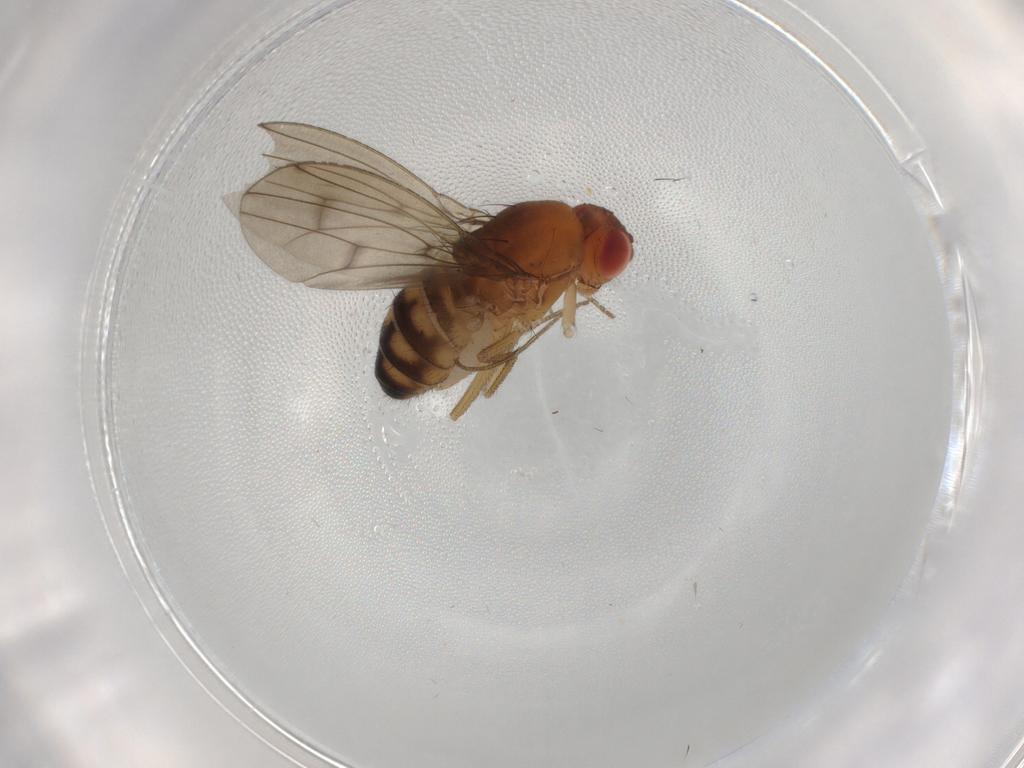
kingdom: Animalia
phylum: Arthropoda
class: Insecta
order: Diptera
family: Drosophilidae
